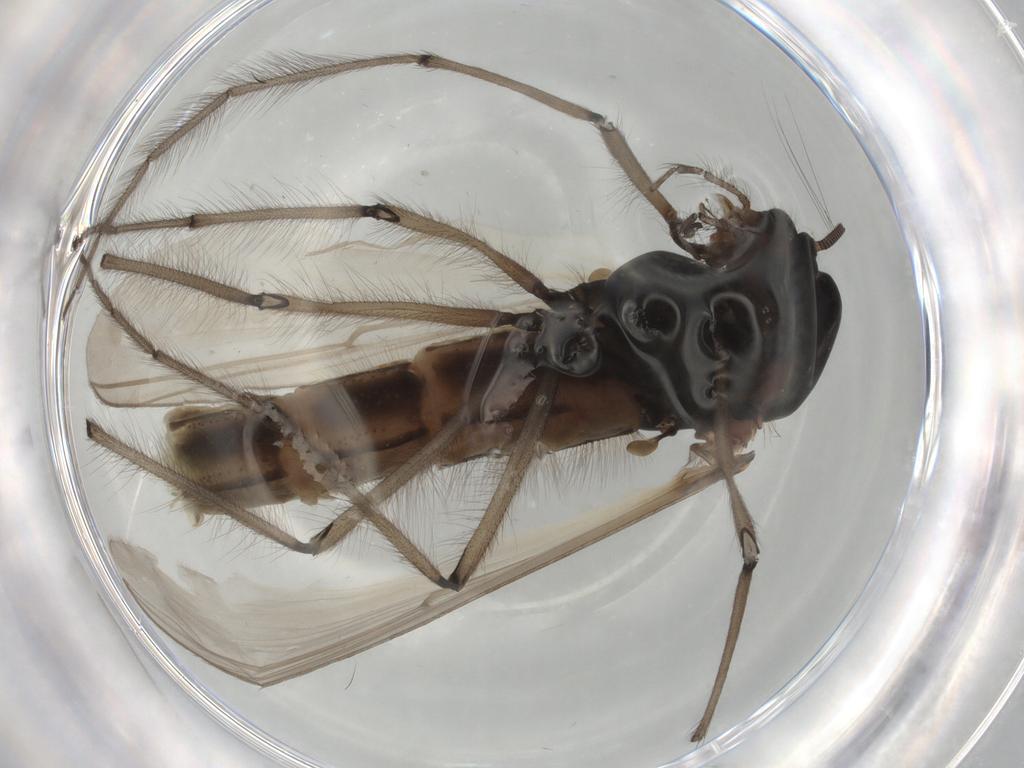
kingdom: Animalia
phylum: Arthropoda
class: Insecta
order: Diptera
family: Chironomidae
